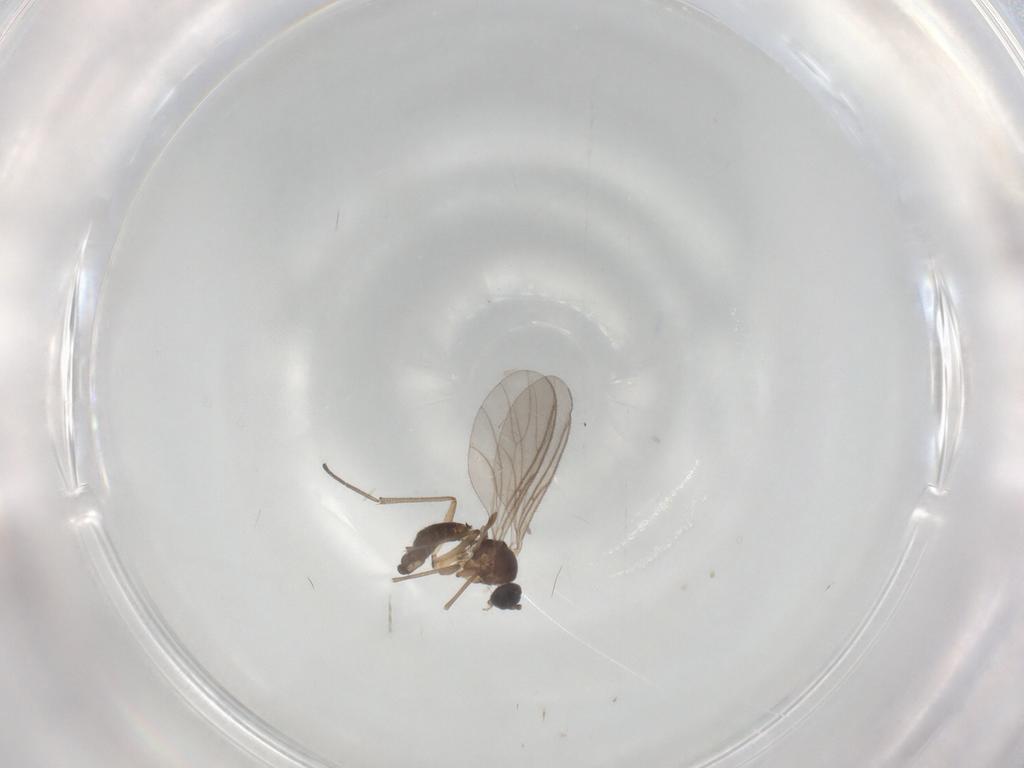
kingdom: Animalia
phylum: Arthropoda
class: Insecta
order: Diptera
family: Sciaridae
